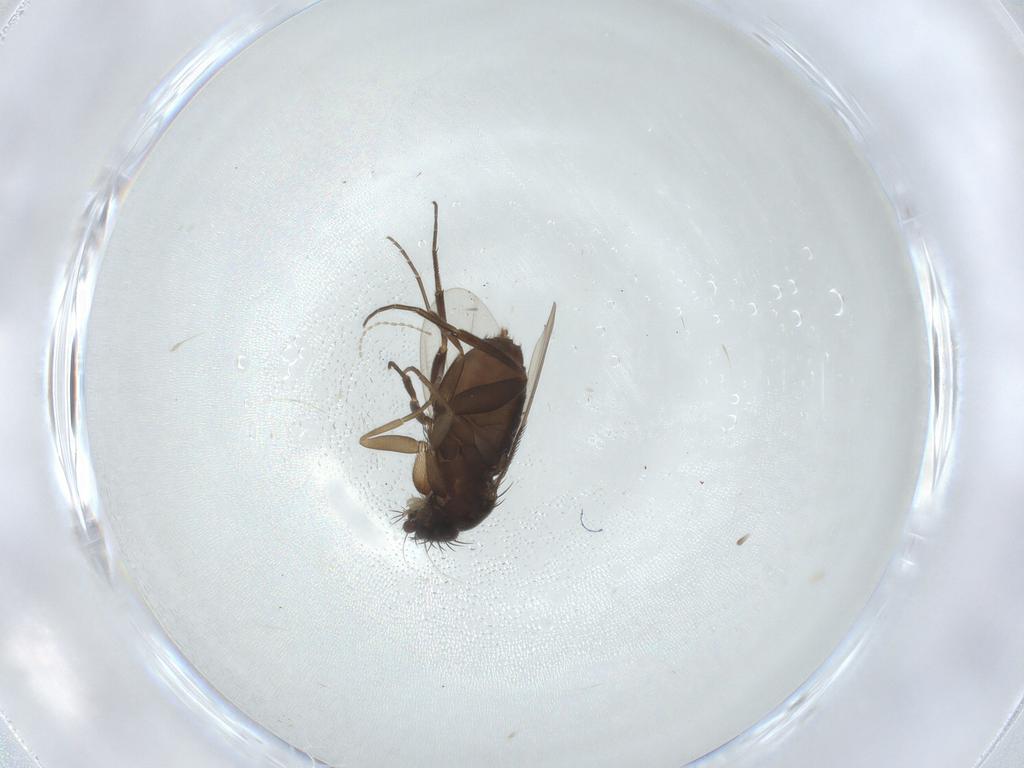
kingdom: Animalia
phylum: Arthropoda
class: Insecta
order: Diptera
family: Phoridae
